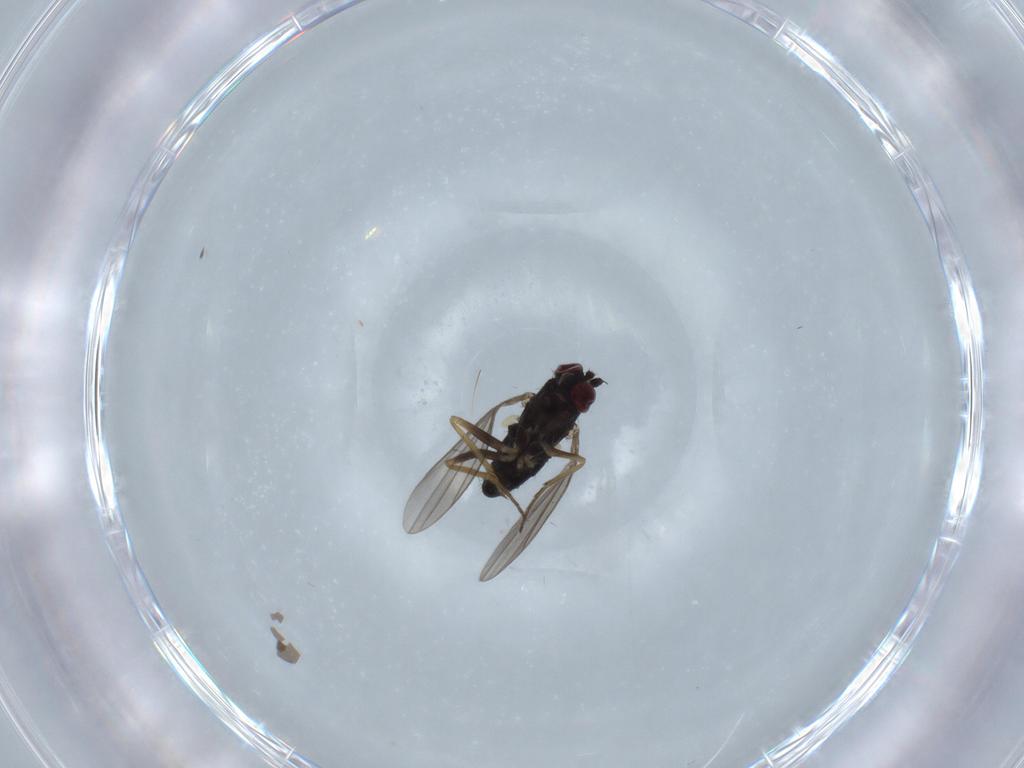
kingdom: Animalia
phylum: Arthropoda
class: Insecta
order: Diptera
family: Dolichopodidae
